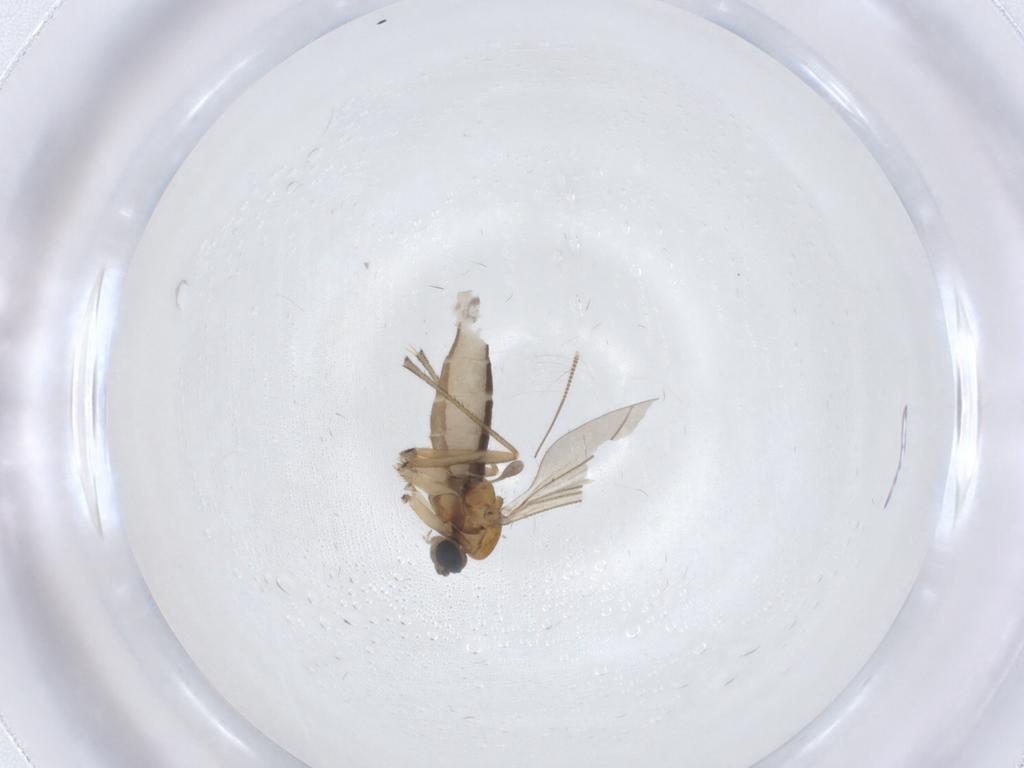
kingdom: Animalia
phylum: Arthropoda
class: Insecta
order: Diptera
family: Sciaridae
